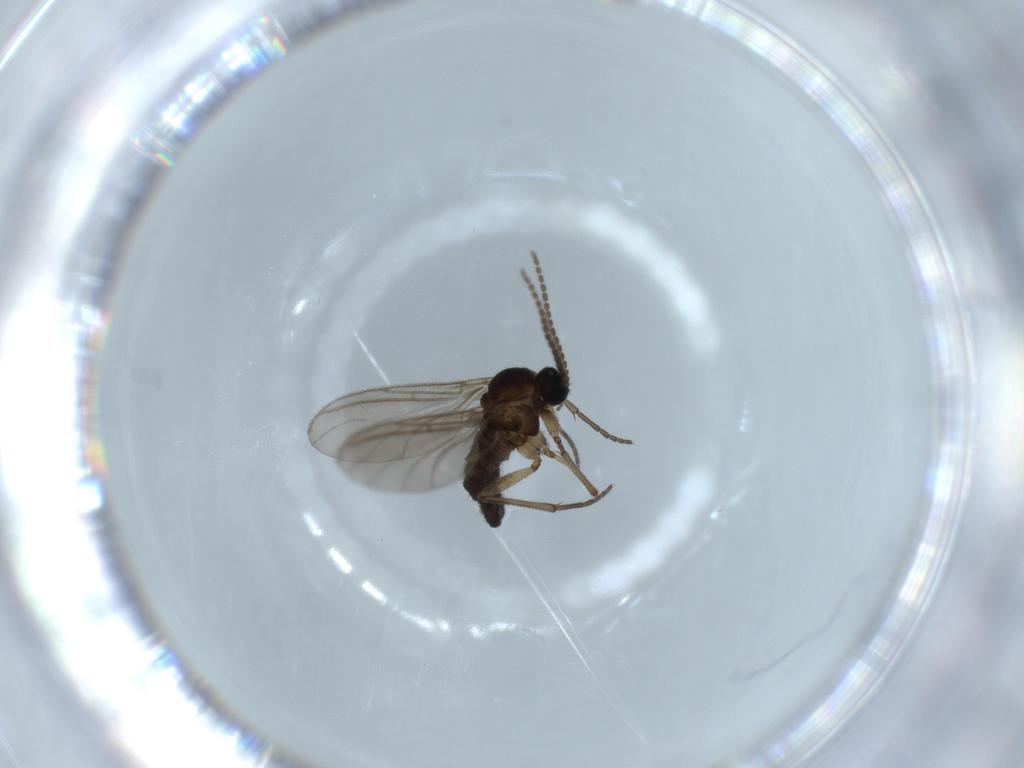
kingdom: Animalia
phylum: Arthropoda
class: Insecta
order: Diptera
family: Sciaridae
